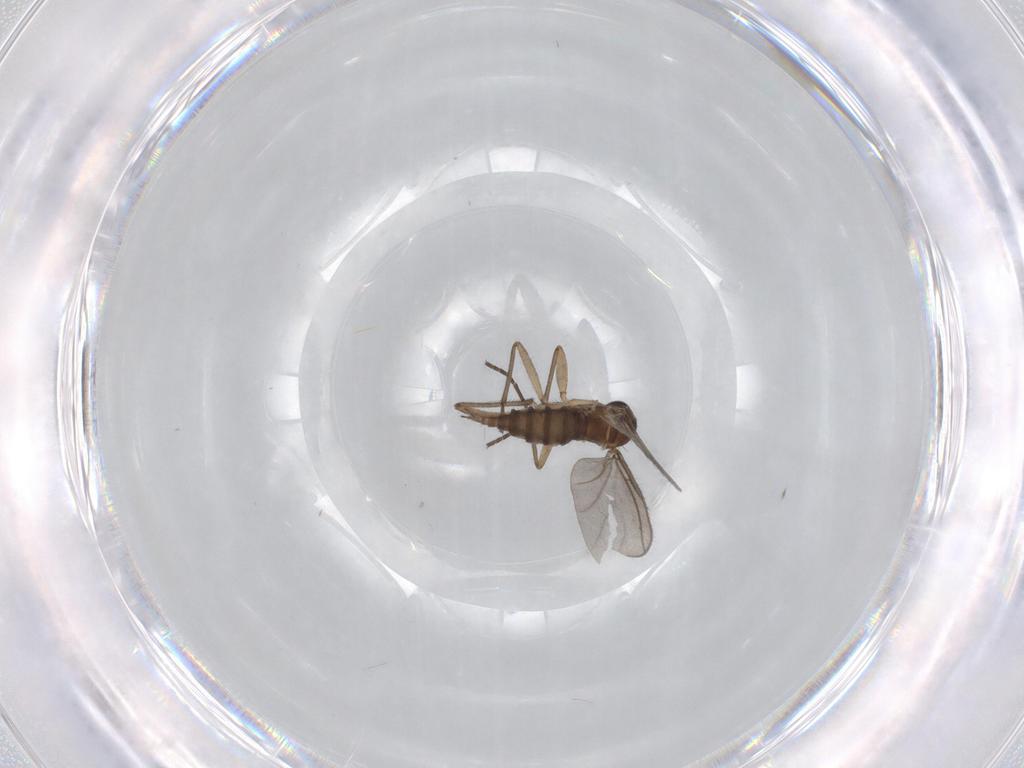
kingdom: Animalia
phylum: Arthropoda
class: Insecta
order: Diptera
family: Sciaridae
